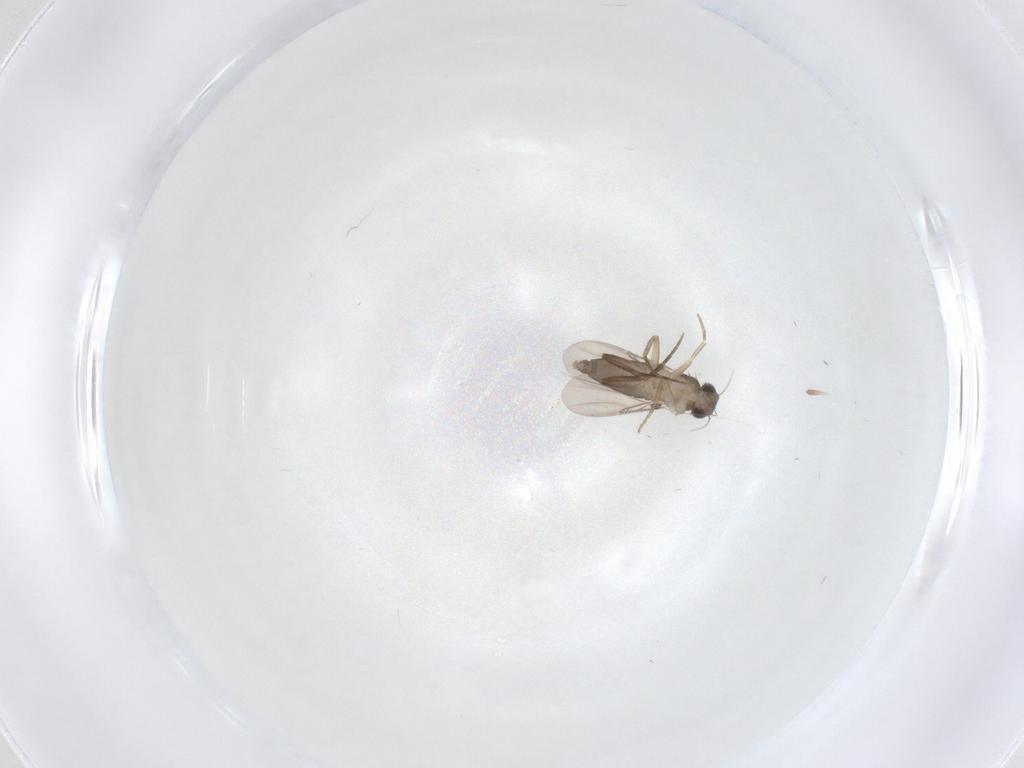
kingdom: Animalia
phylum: Arthropoda
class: Insecta
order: Diptera
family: Phoridae
